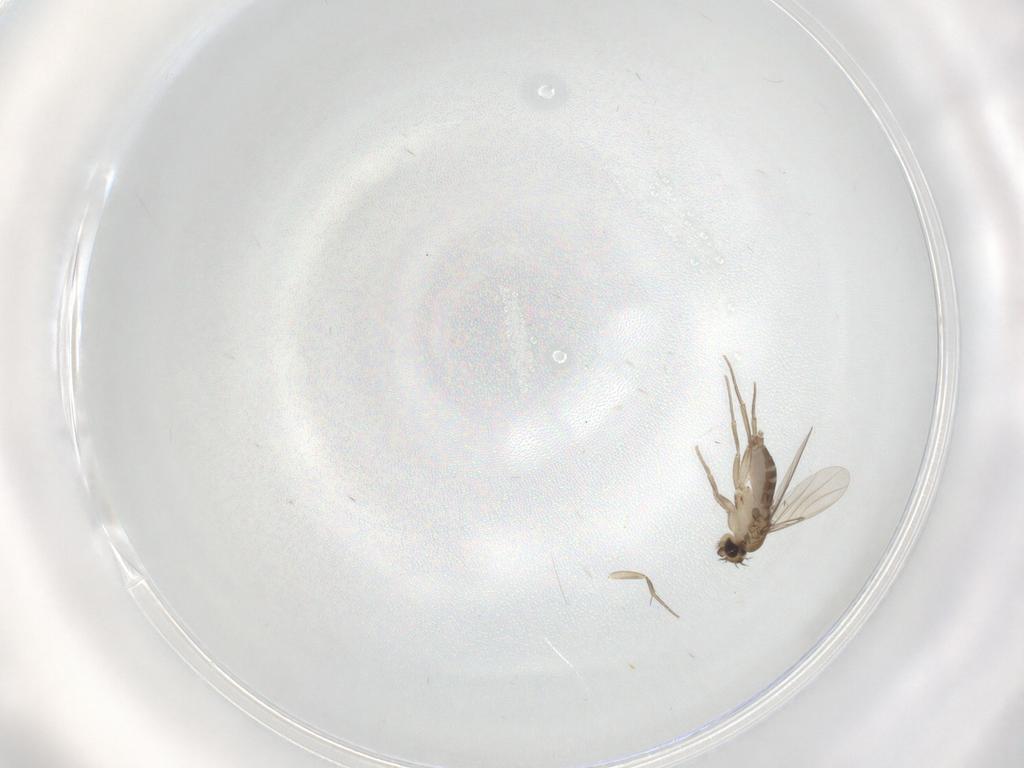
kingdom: Animalia
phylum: Arthropoda
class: Insecta
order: Diptera
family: Phoridae
